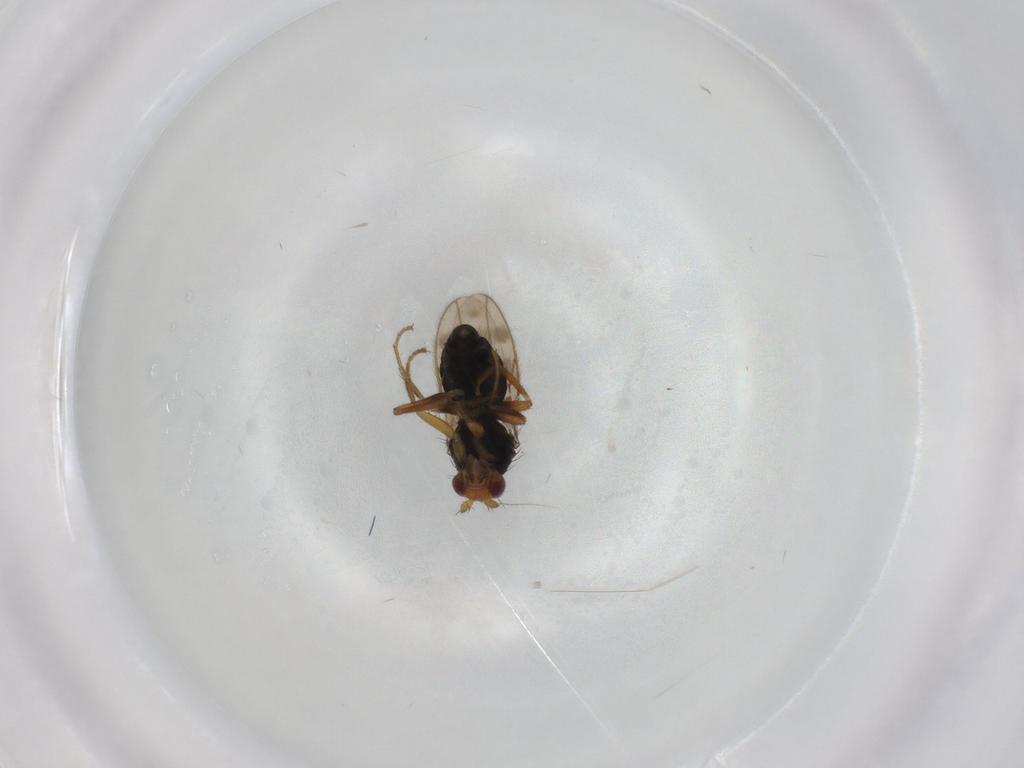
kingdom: Animalia
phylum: Arthropoda
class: Insecta
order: Diptera
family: Sphaeroceridae
